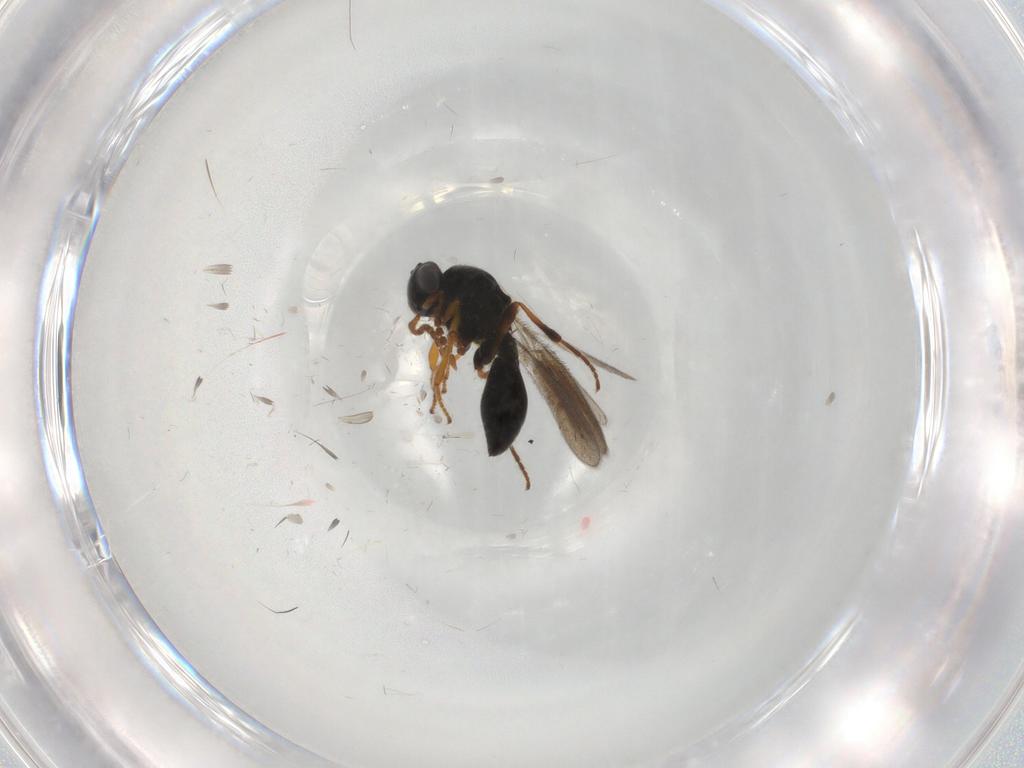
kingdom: Animalia
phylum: Arthropoda
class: Insecta
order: Hymenoptera
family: Platygastridae
